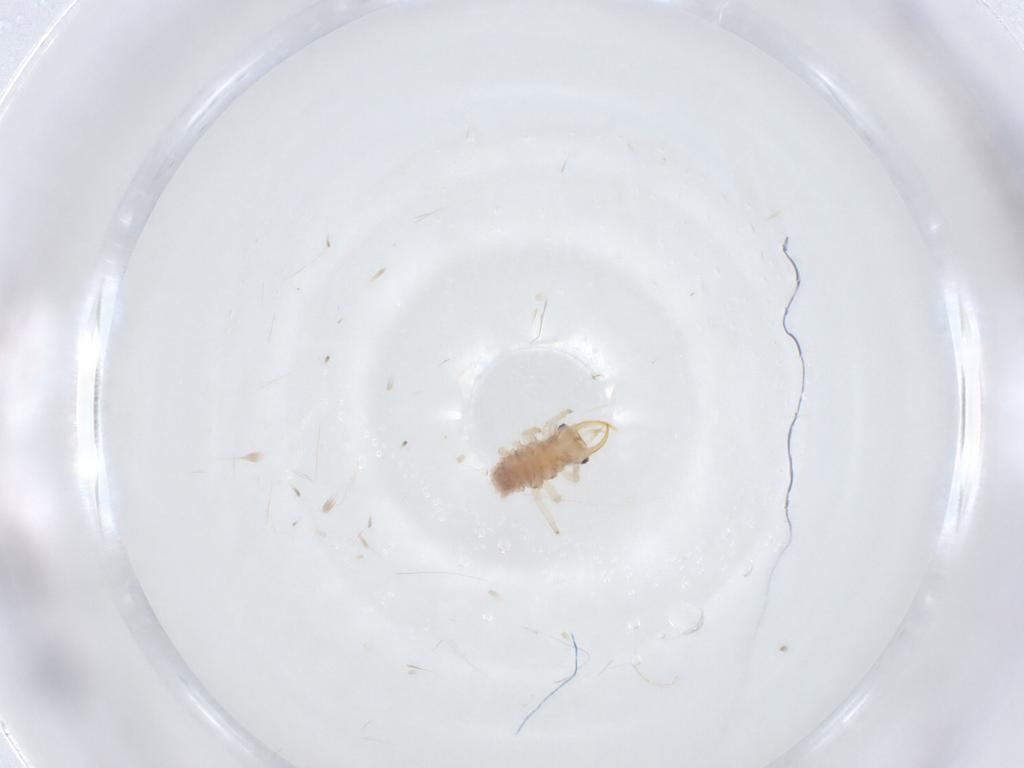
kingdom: Animalia
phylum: Arthropoda
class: Insecta
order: Neuroptera
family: Chrysopidae
